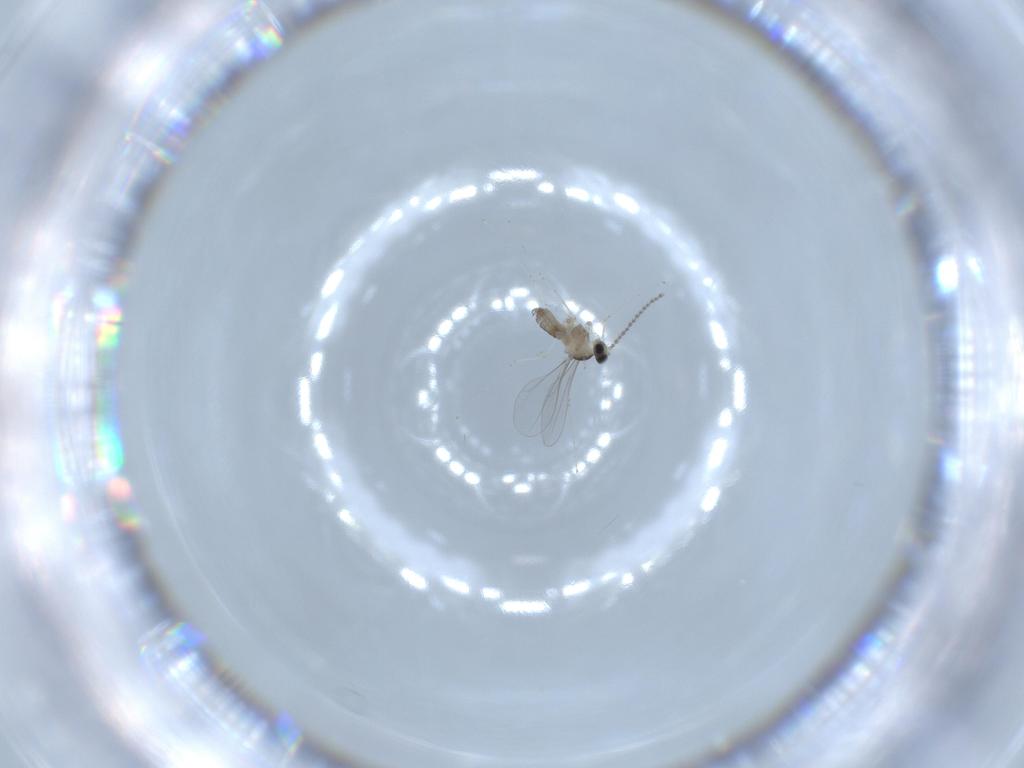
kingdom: Animalia
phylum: Arthropoda
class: Insecta
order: Diptera
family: Cecidomyiidae
